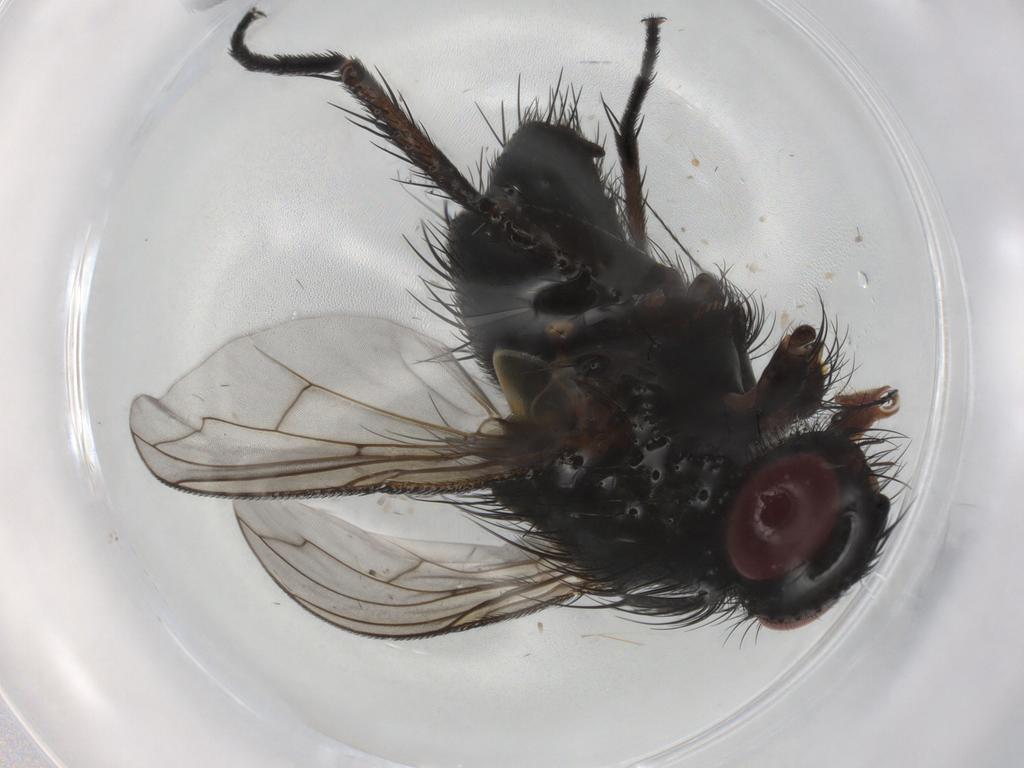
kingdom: Animalia
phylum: Arthropoda
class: Insecta
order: Diptera
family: Tachinidae
